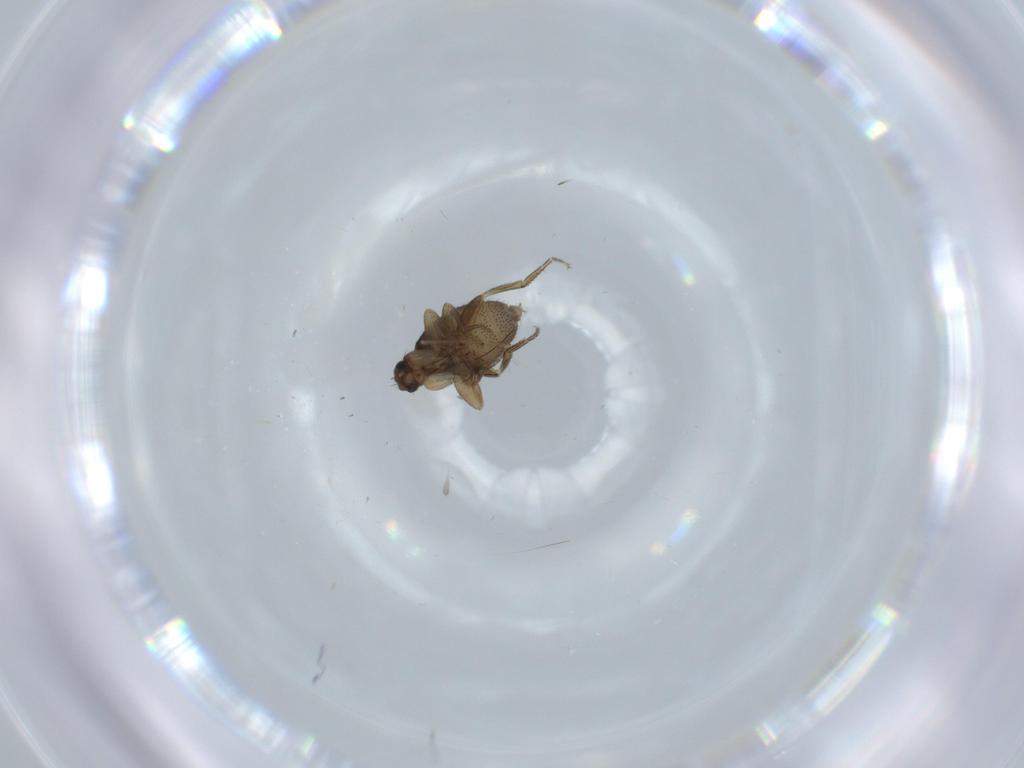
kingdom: Animalia
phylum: Arthropoda
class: Insecta
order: Diptera
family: Phoridae
